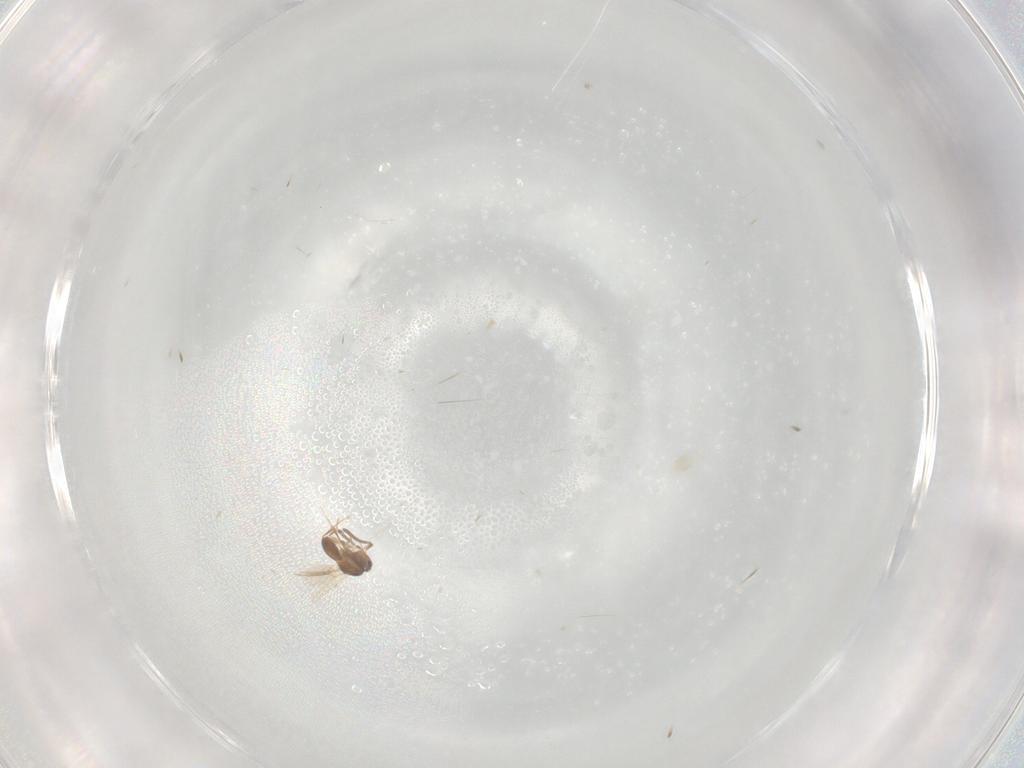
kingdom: Animalia
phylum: Arthropoda
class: Insecta
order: Hymenoptera
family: Scelionidae
